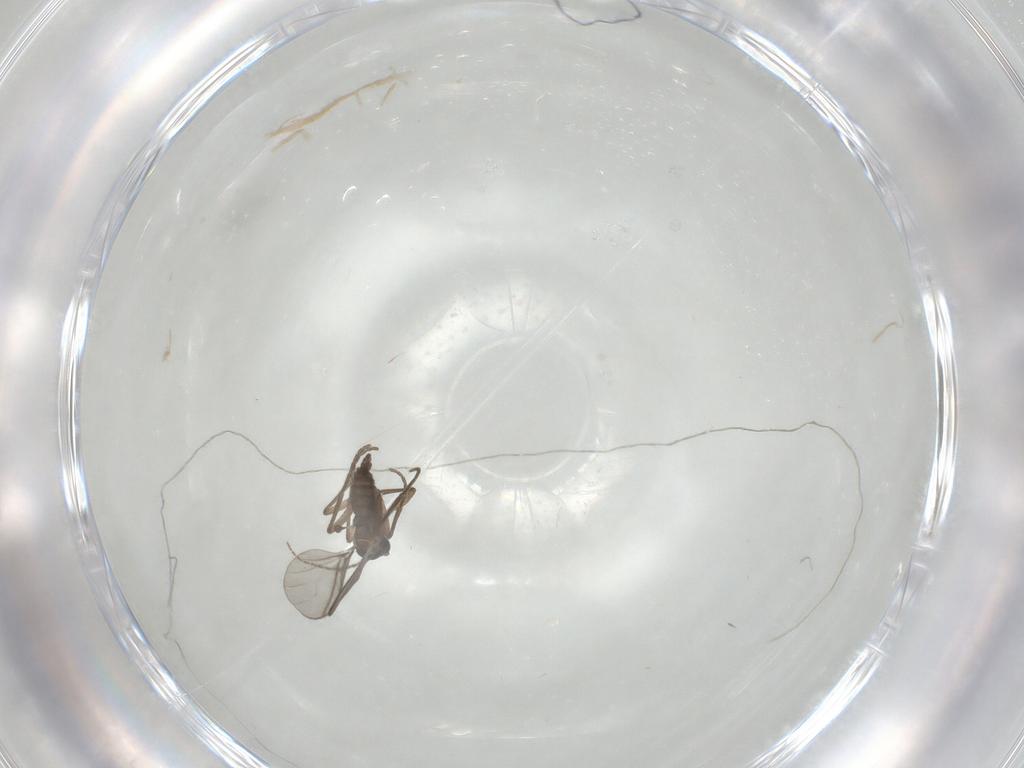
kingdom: Animalia
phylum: Arthropoda
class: Insecta
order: Diptera
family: Sciaridae
